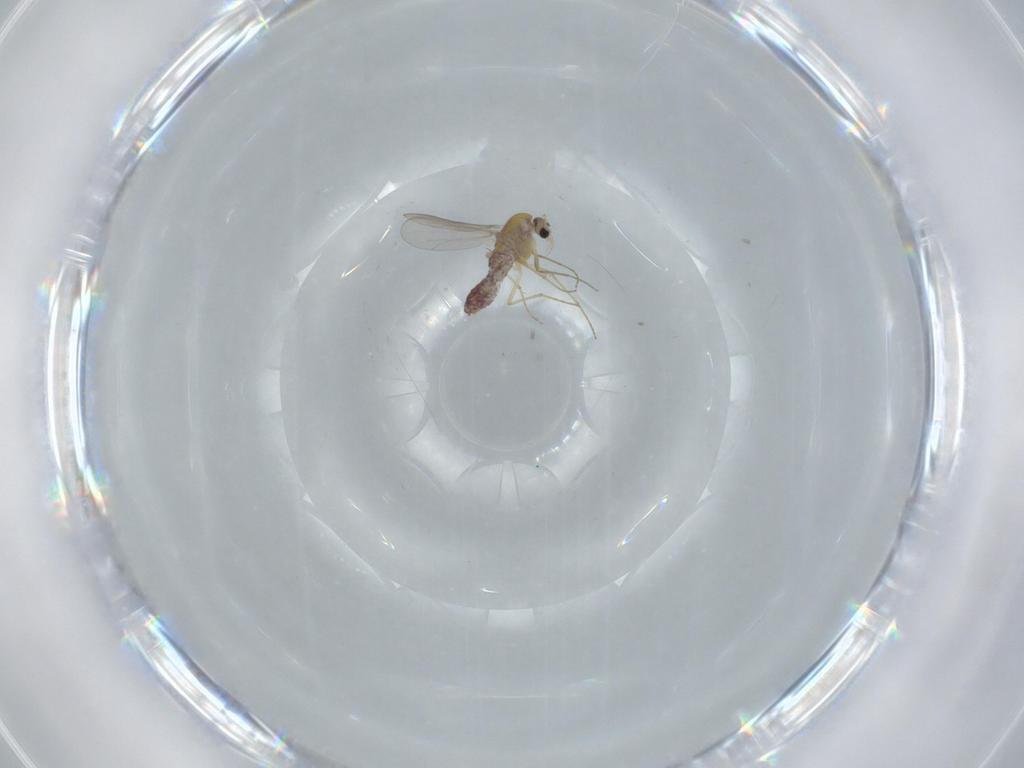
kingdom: Animalia
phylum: Arthropoda
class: Insecta
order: Diptera
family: Chironomidae
